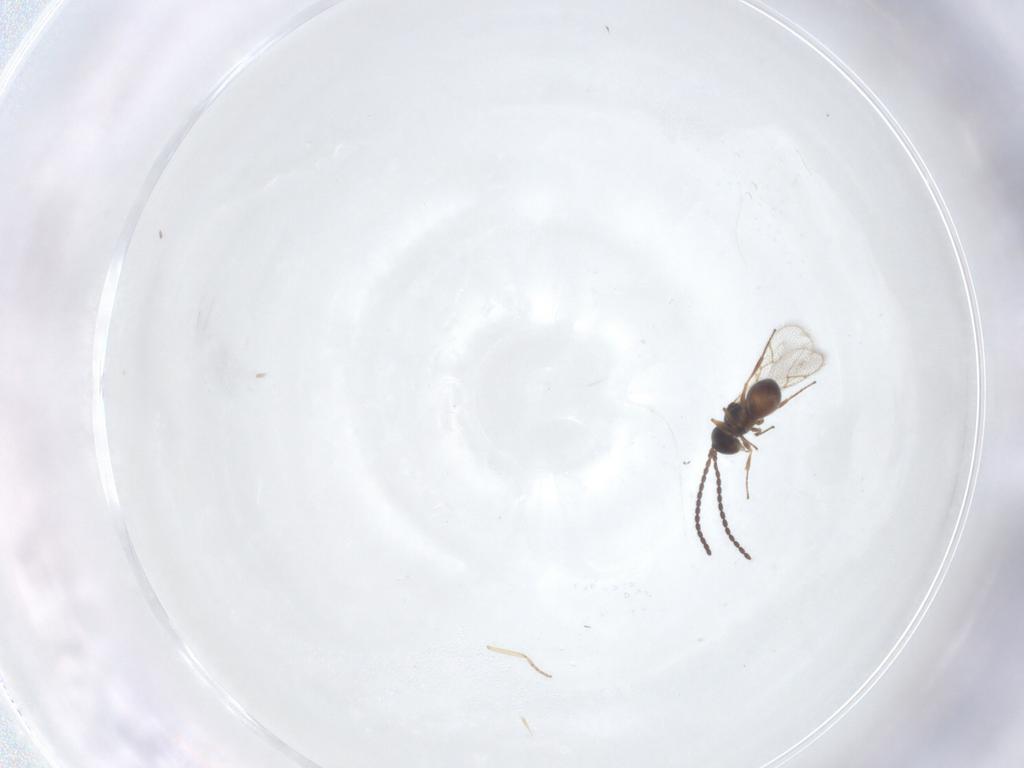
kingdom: Animalia
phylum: Arthropoda
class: Insecta
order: Hymenoptera
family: Figitidae
